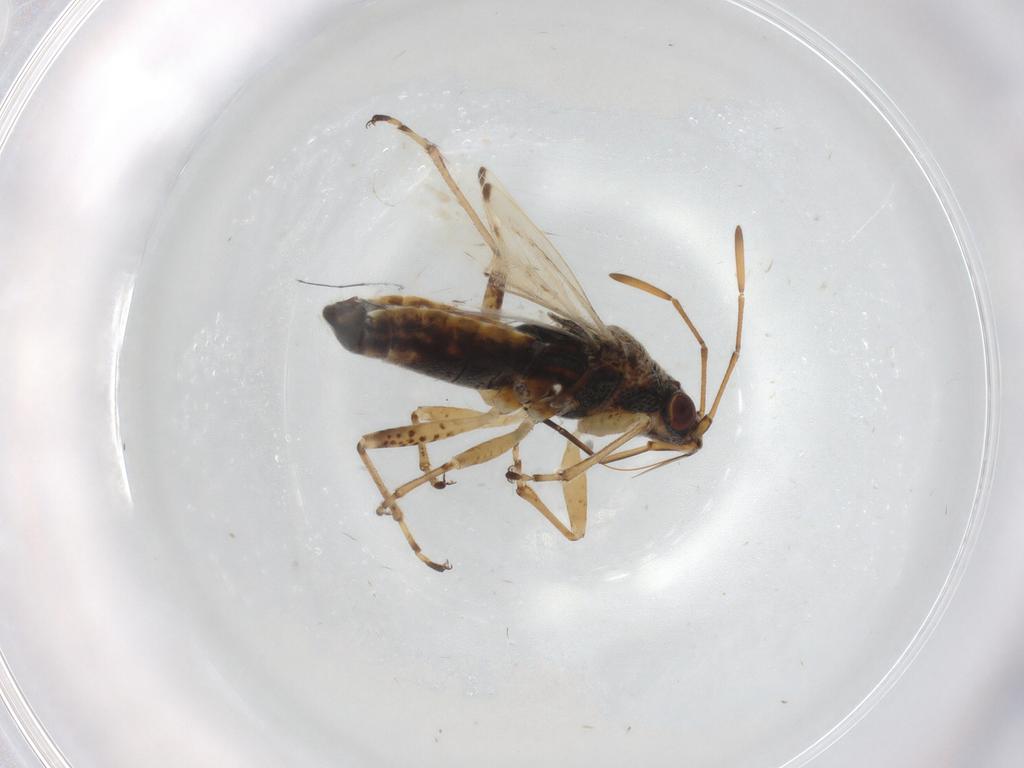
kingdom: Animalia
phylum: Arthropoda
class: Insecta
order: Hemiptera
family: Lygaeidae
